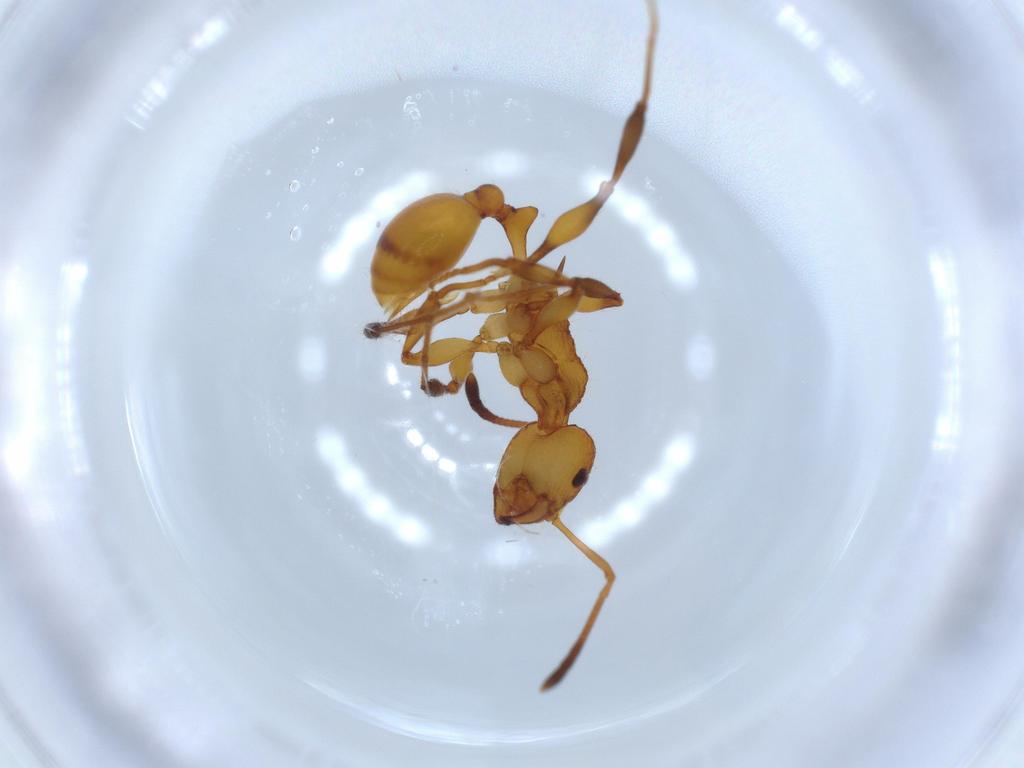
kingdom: Animalia
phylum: Arthropoda
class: Insecta
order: Hymenoptera
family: Formicidae
